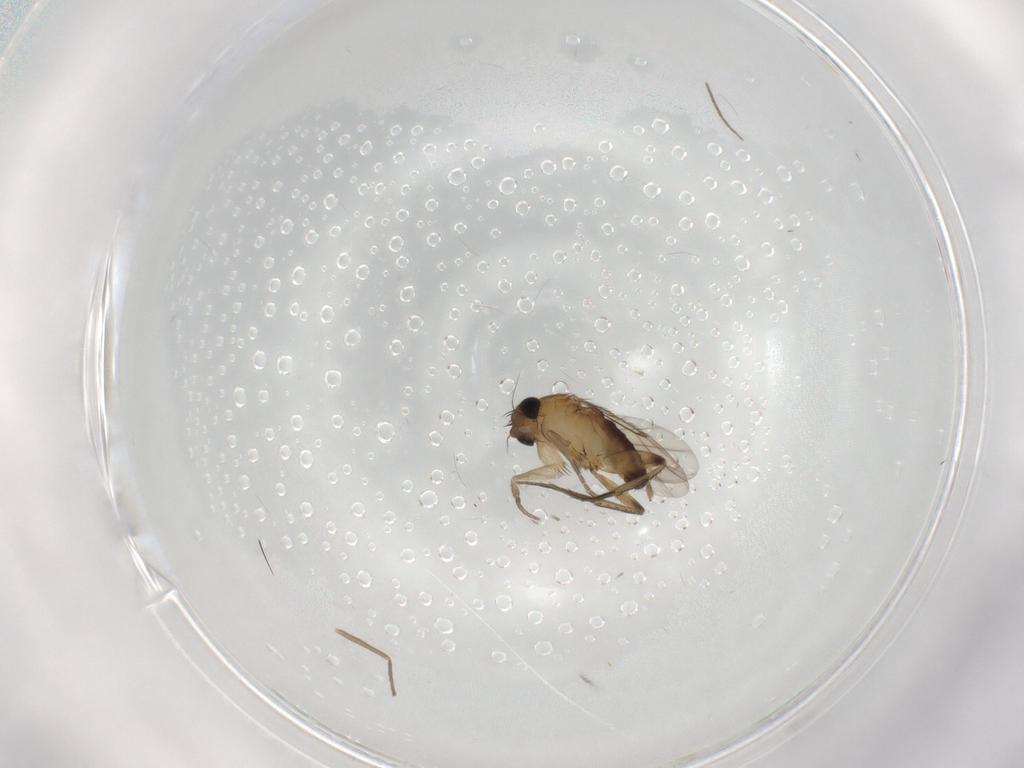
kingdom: Animalia
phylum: Arthropoda
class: Insecta
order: Diptera
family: Phoridae
